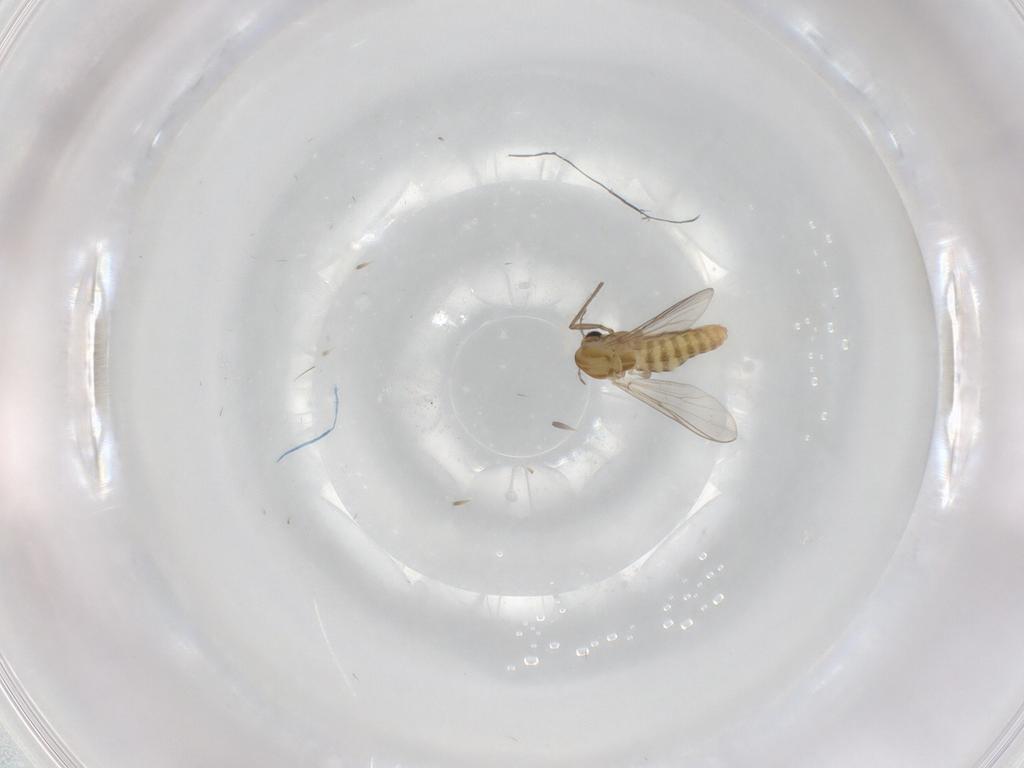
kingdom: Animalia
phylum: Arthropoda
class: Insecta
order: Diptera
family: Chironomidae
